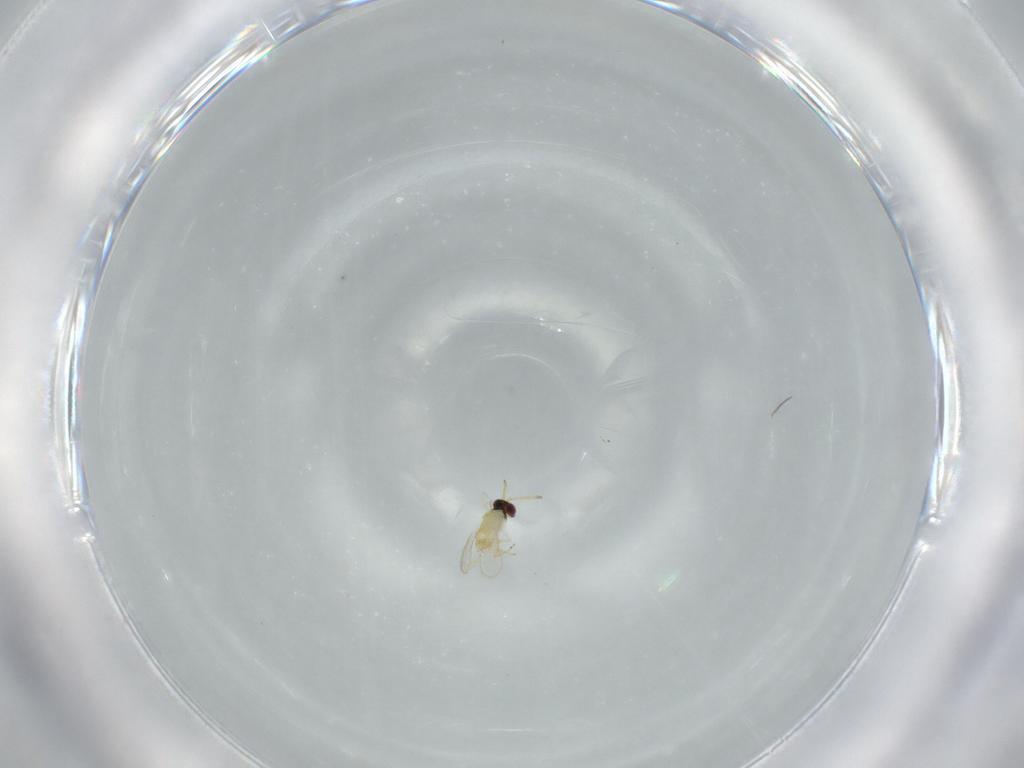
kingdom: Animalia
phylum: Arthropoda
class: Insecta
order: Hymenoptera
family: Aphelinidae
